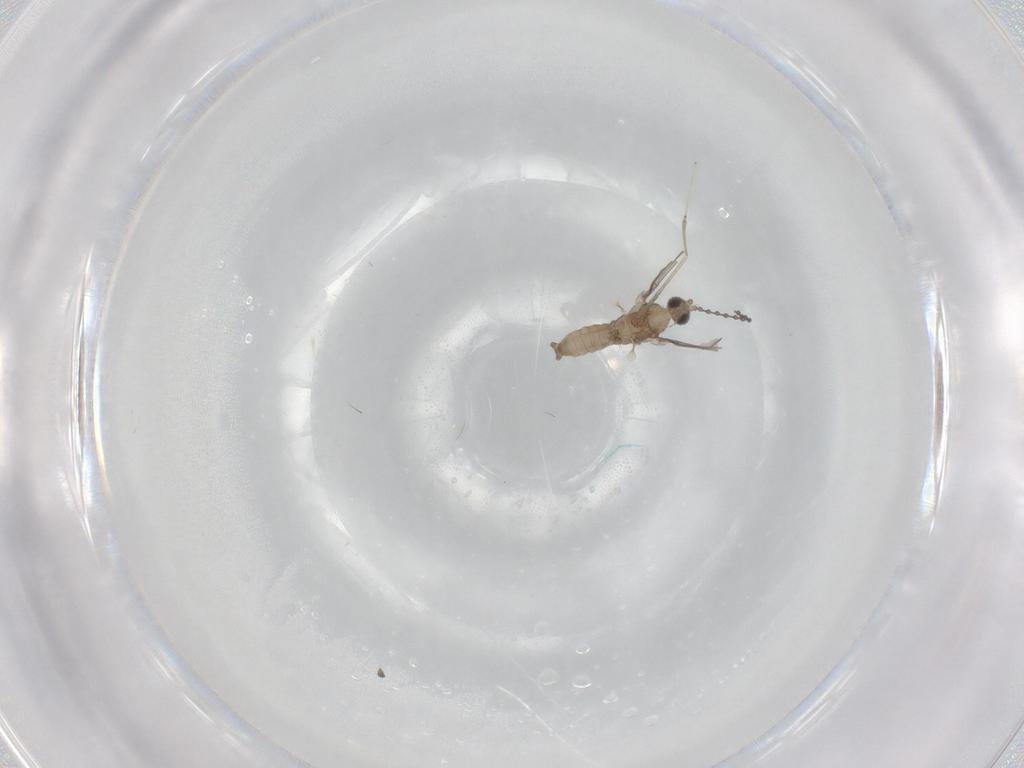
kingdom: Animalia
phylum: Arthropoda
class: Insecta
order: Diptera
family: Cecidomyiidae
